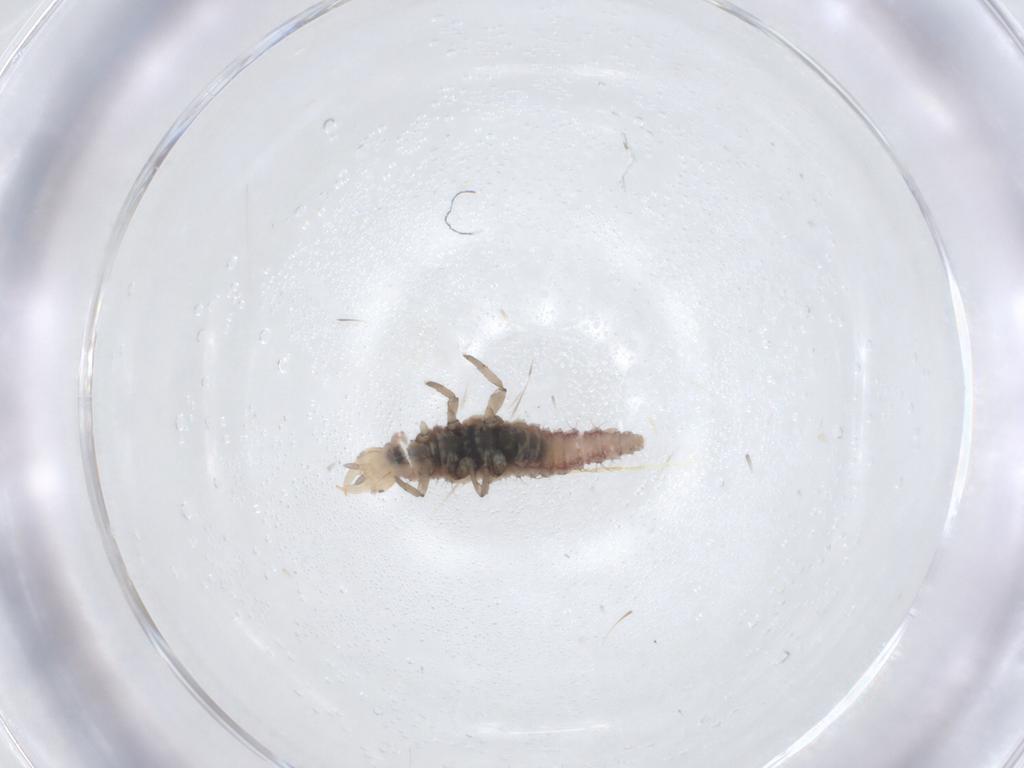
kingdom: Animalia
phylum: Arthropoda
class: Insecta
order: Neuroptera
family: Hemerobiidae
